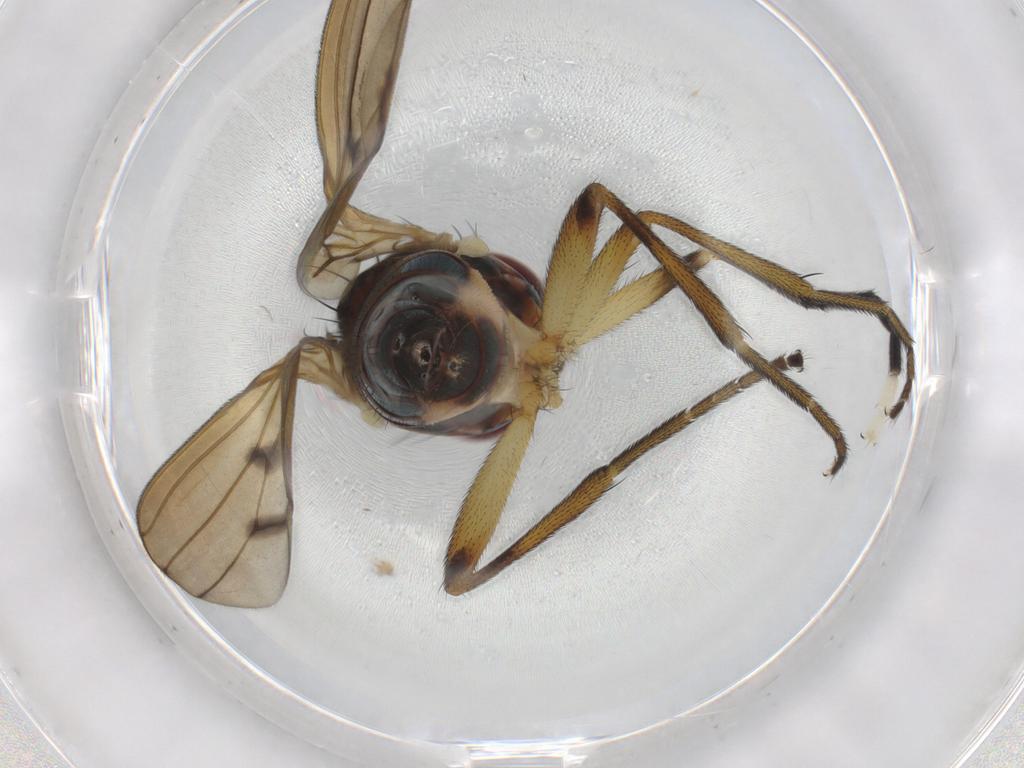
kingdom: Animalia
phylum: Arthropoda
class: Insecta
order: Diptera
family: Sciomyzidae
